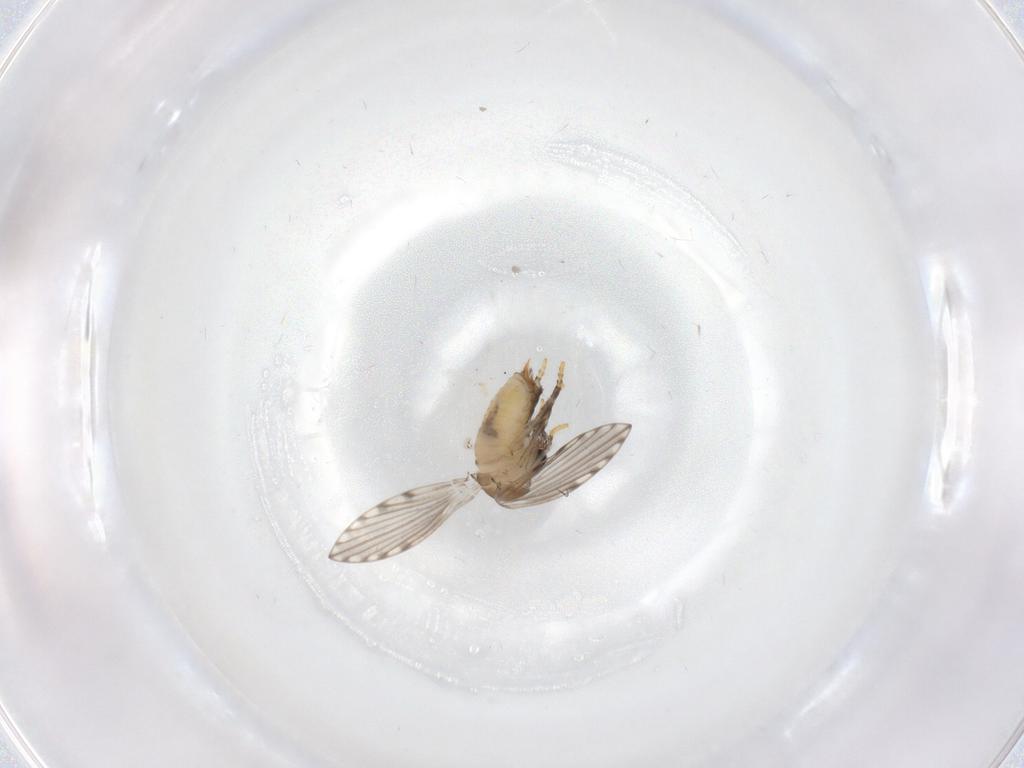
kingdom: Animalia
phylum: Arthropoda
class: Insecta
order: Diptera
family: Psychodidae
